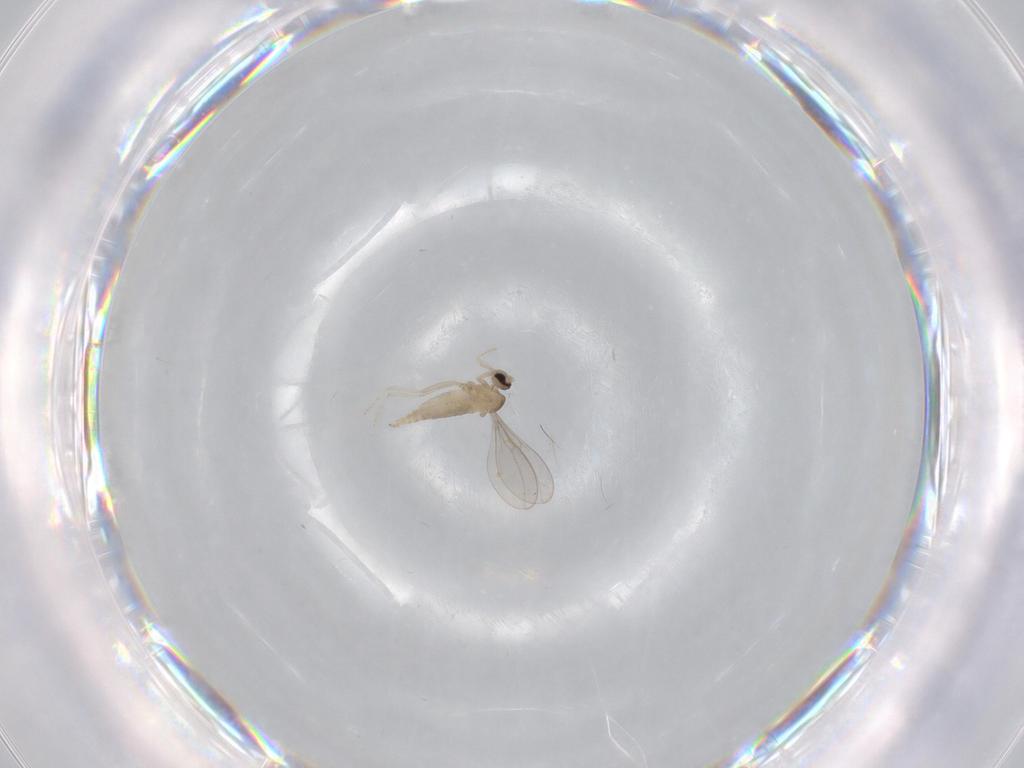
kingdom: Animalia
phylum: Arthropoda
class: Insecta
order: Diptera
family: Cecidomyiidae
